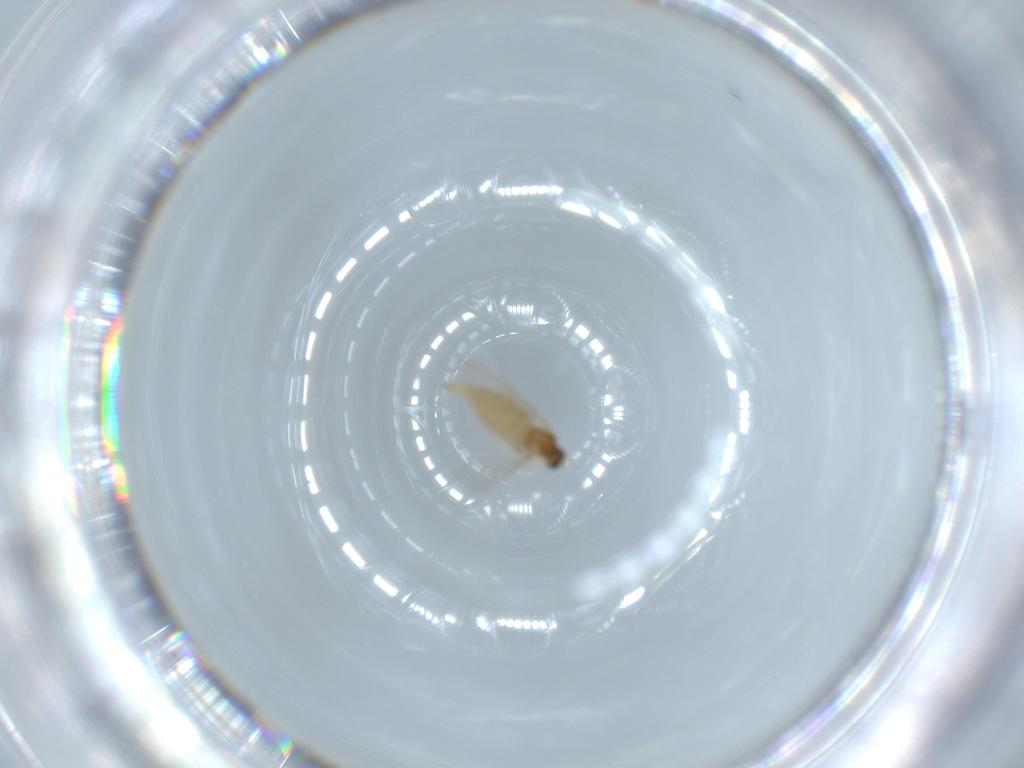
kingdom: Animalia
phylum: Arthropoda
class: Insecta
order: Diptera
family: Cecidomyiidae
